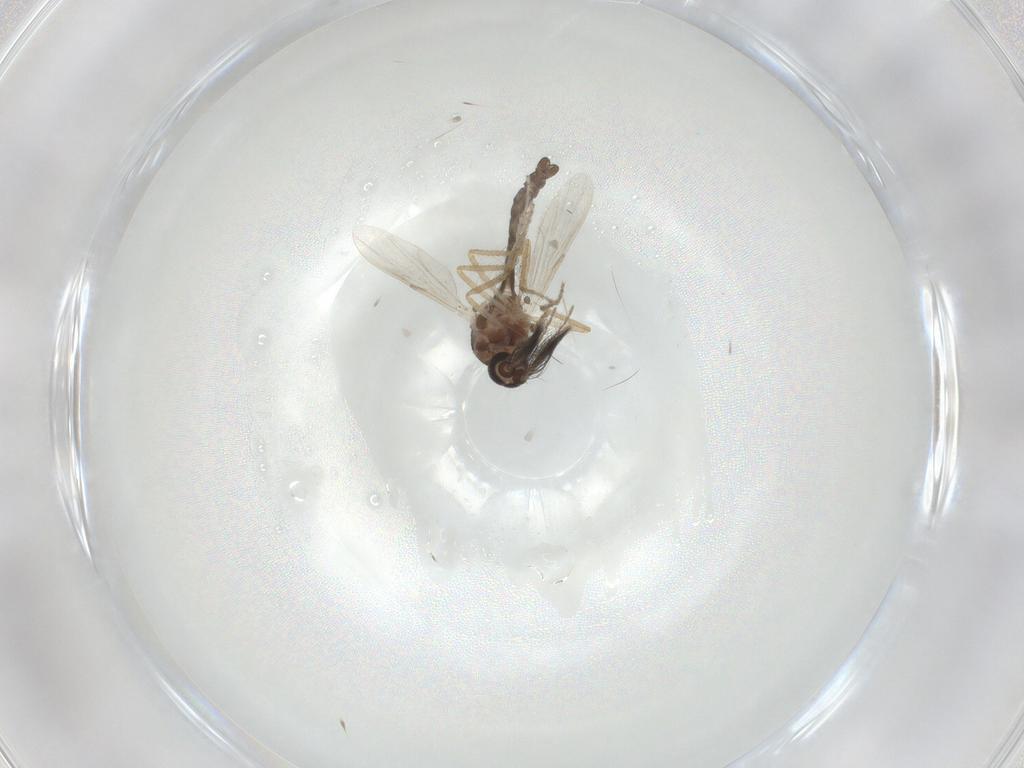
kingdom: Animalia
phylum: Arthropoda
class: Insecta
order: Diptera
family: Ceratopogonidae
